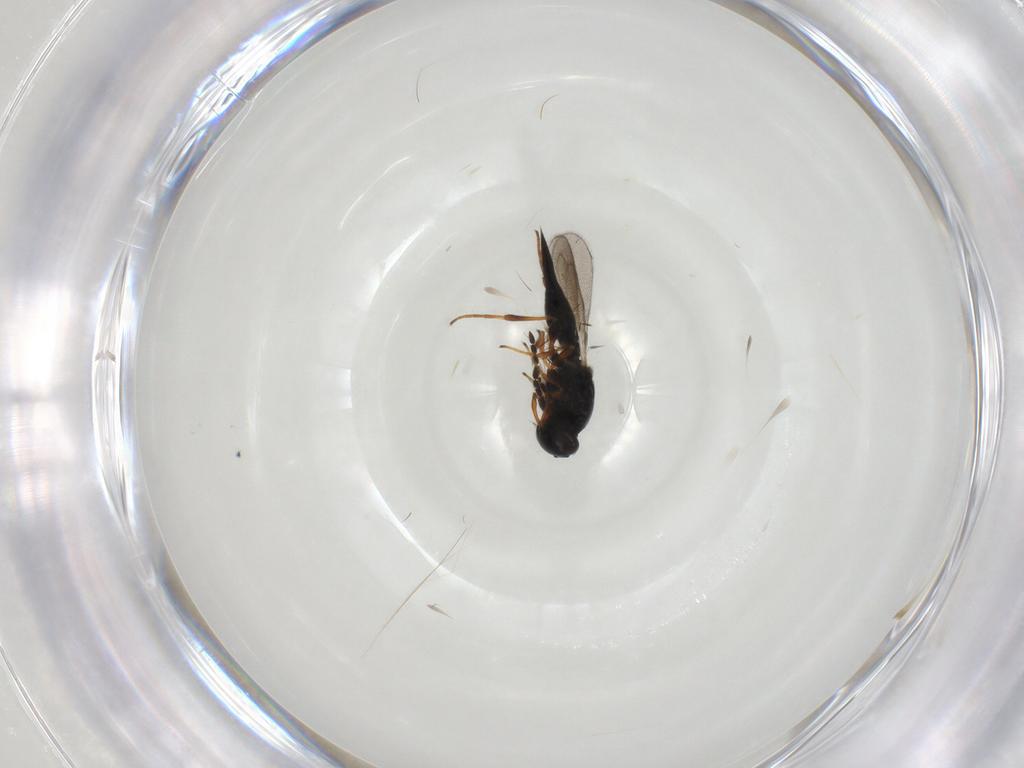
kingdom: Animalia
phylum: Arthropoda
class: Insecta
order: Hymenoptera
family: Platygastridae
